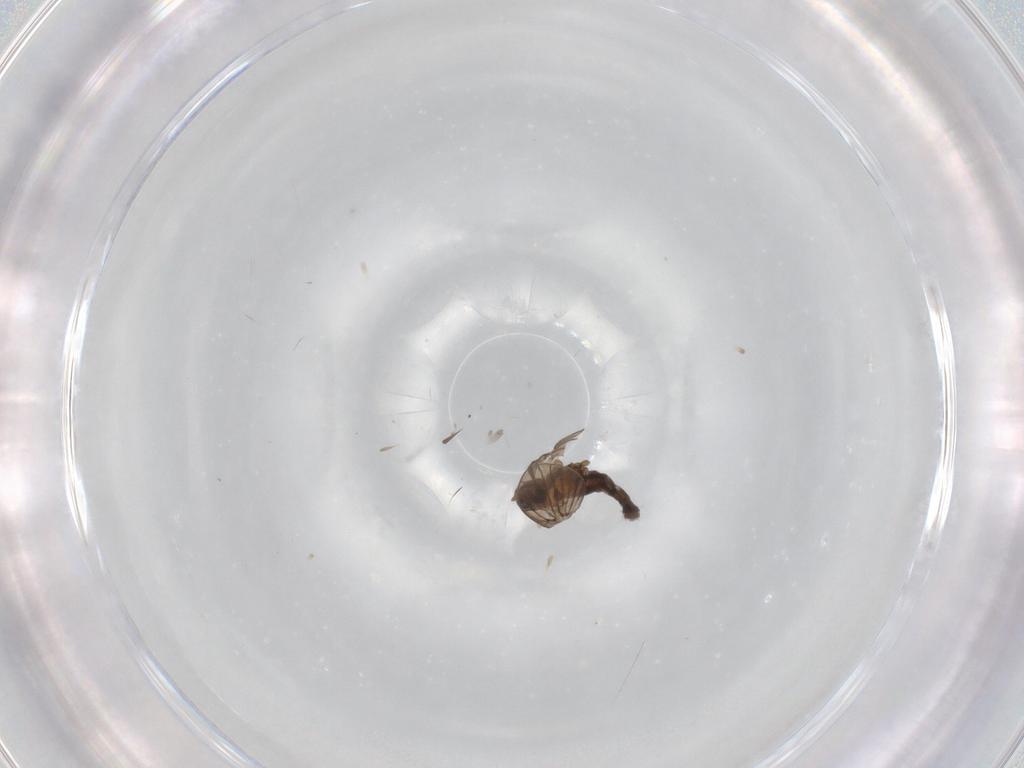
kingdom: Animalia
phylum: Arthropoda
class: Insecta
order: Diptera
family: Psychodidae
